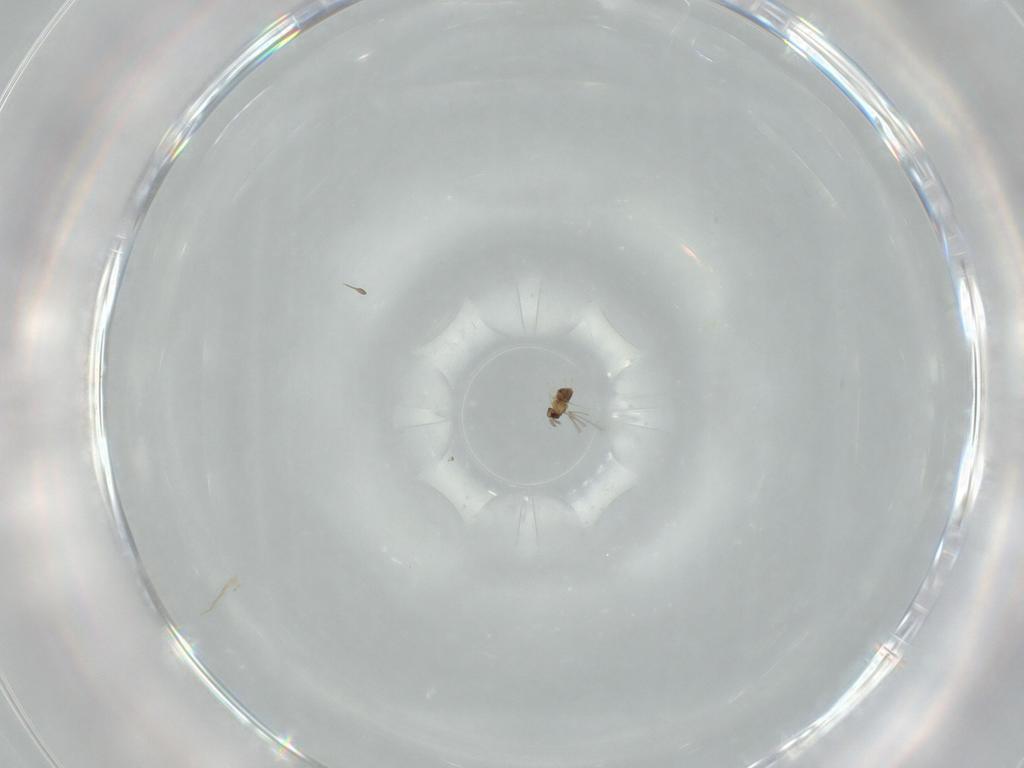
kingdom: Animalia
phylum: Arthropoda
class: Insecta
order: Hymenoptera
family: Mymaridae
